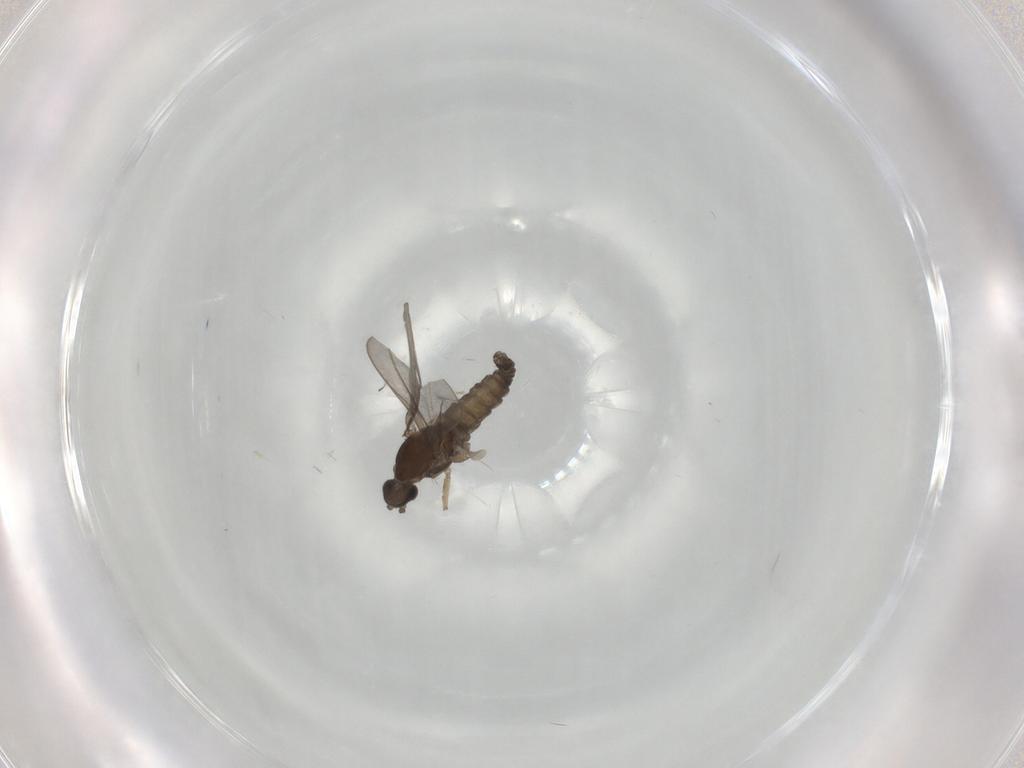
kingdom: Animalia
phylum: Arthropoda
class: Insecta
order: Diptera
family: Cecidomyiidae
